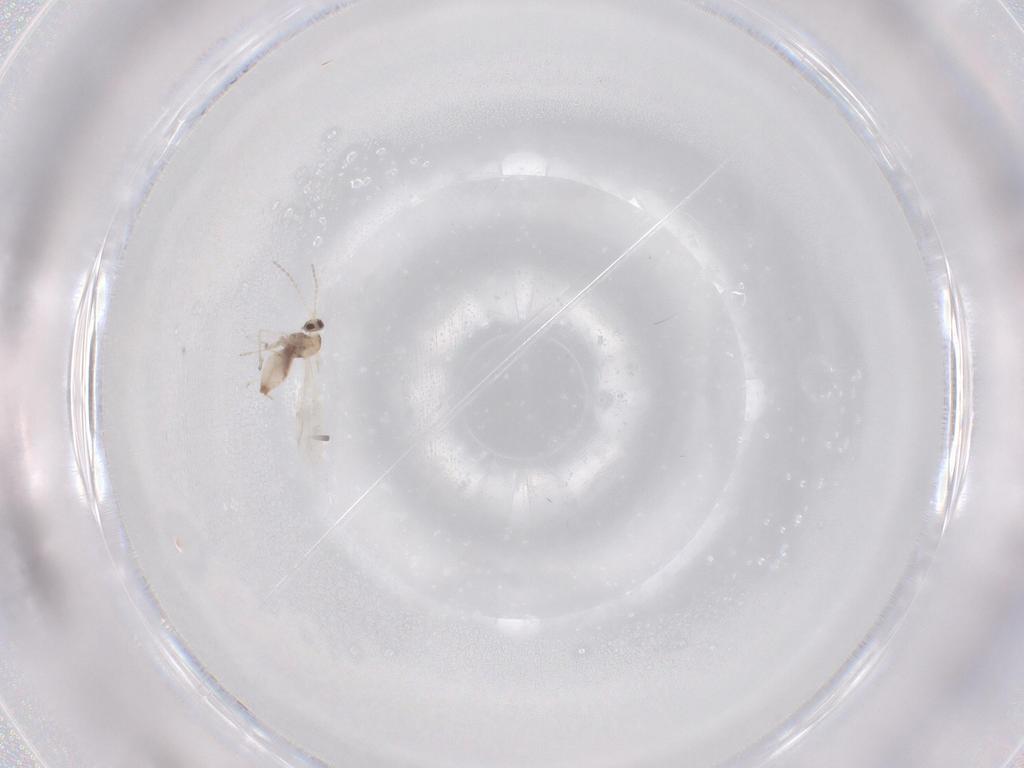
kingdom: Animalia
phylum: Arthropoda
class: Insecta
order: Diptera
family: Cecidomyiidae
